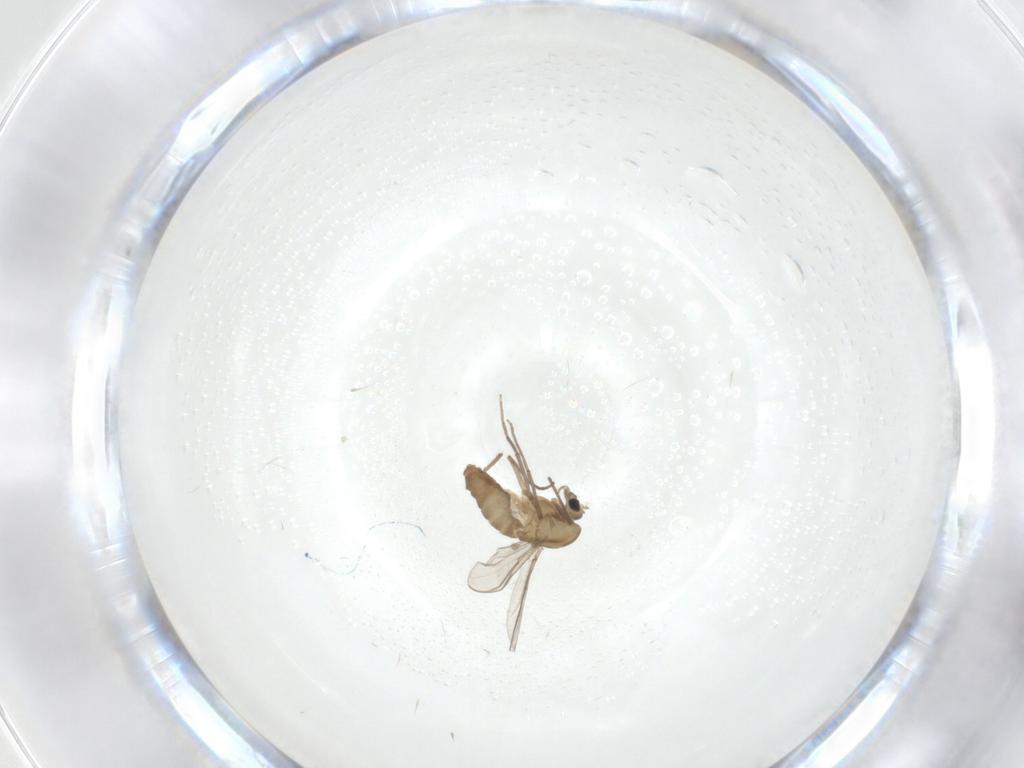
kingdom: Animalia
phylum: Arthropoda
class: Insecta
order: Diptera
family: Chironomidae
